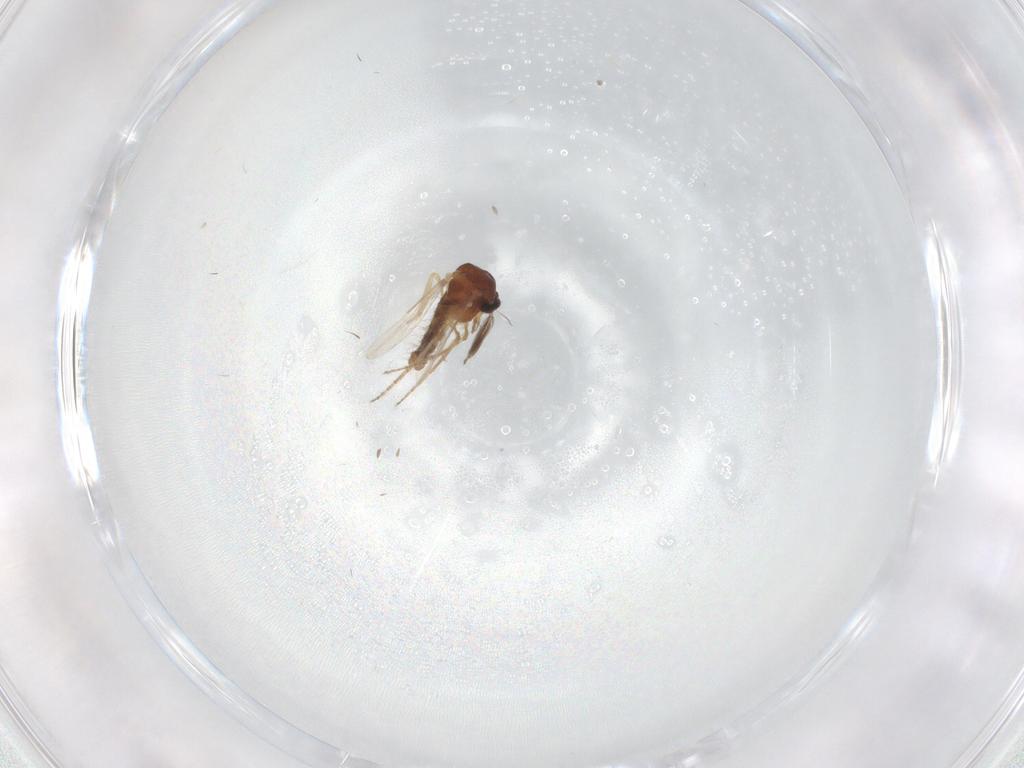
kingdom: Animalia
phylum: Arthropoda
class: Insecta
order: Diptera
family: Ceratopogonidae
